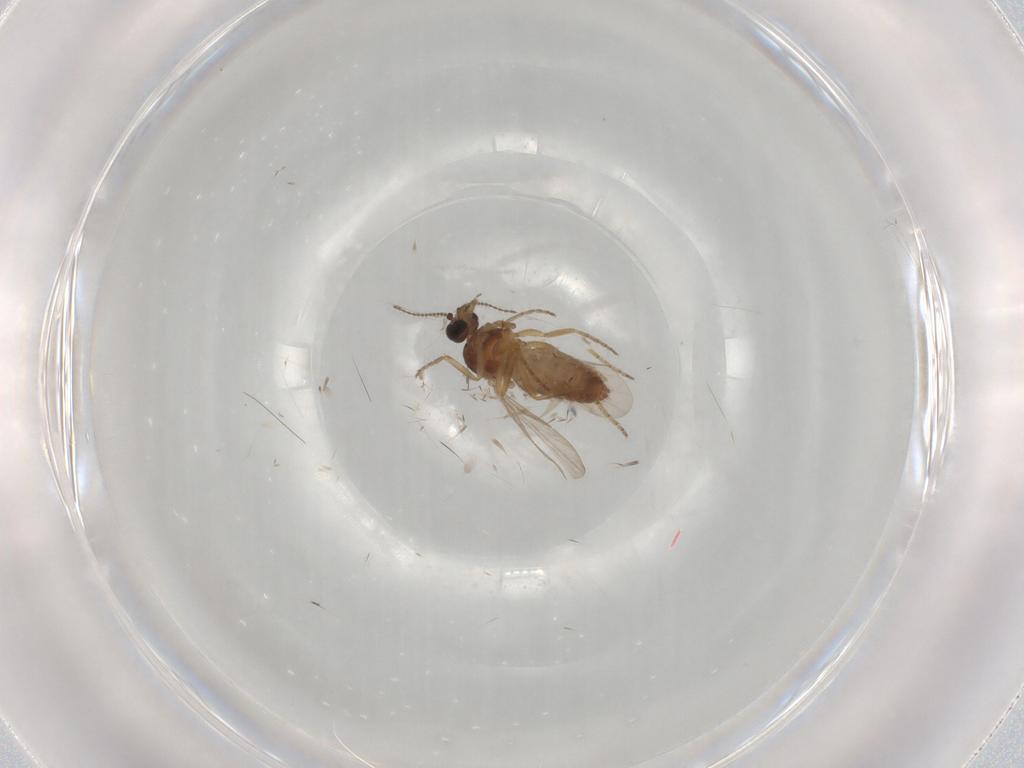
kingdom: Animalia
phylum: Arthropoda
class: Insecta
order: Diptera
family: Ceratopogonidae
